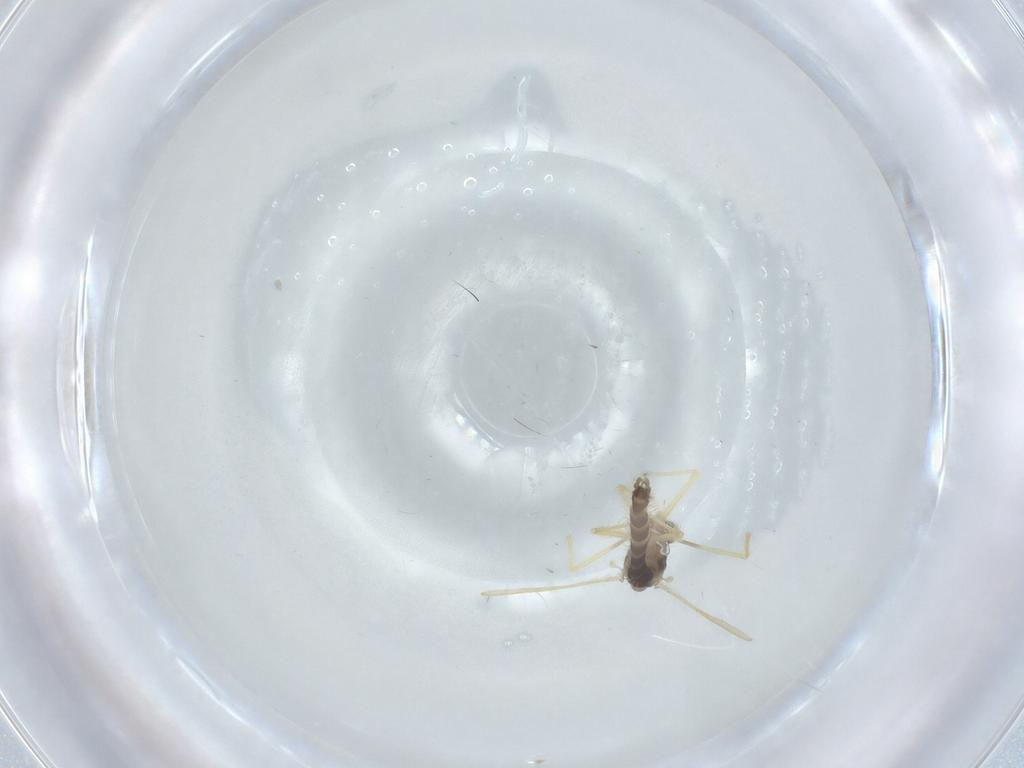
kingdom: Animalia
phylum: Arthropoda
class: Insecta
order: Diptera
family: Chironomidae
